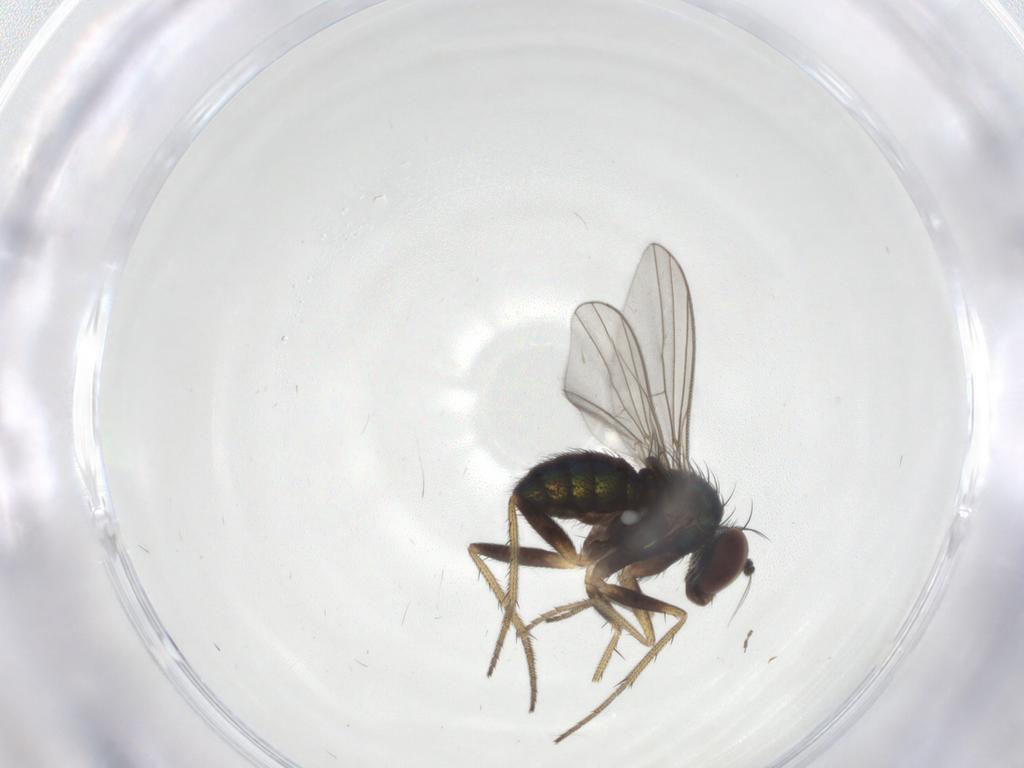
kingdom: Animalia
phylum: Arthropoda
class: Insecta
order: Diptera
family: Dolichopodidae
